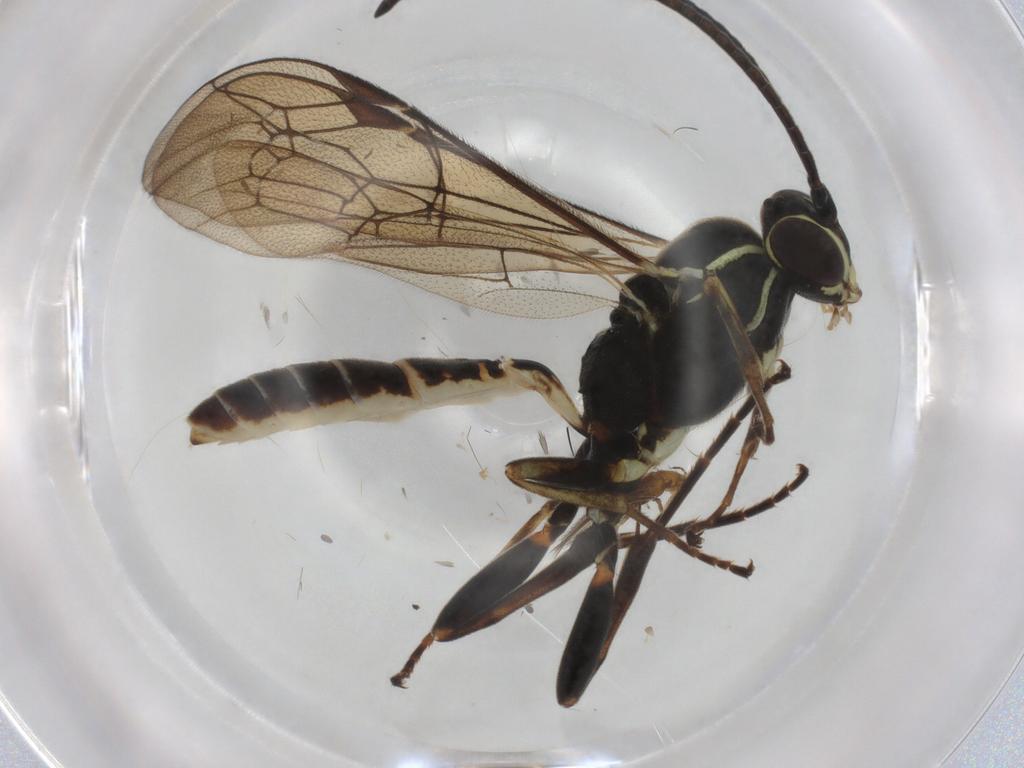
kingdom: Animalia
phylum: Arthropoda
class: Insecta
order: Hymenoptera
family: Ichneumonidae
